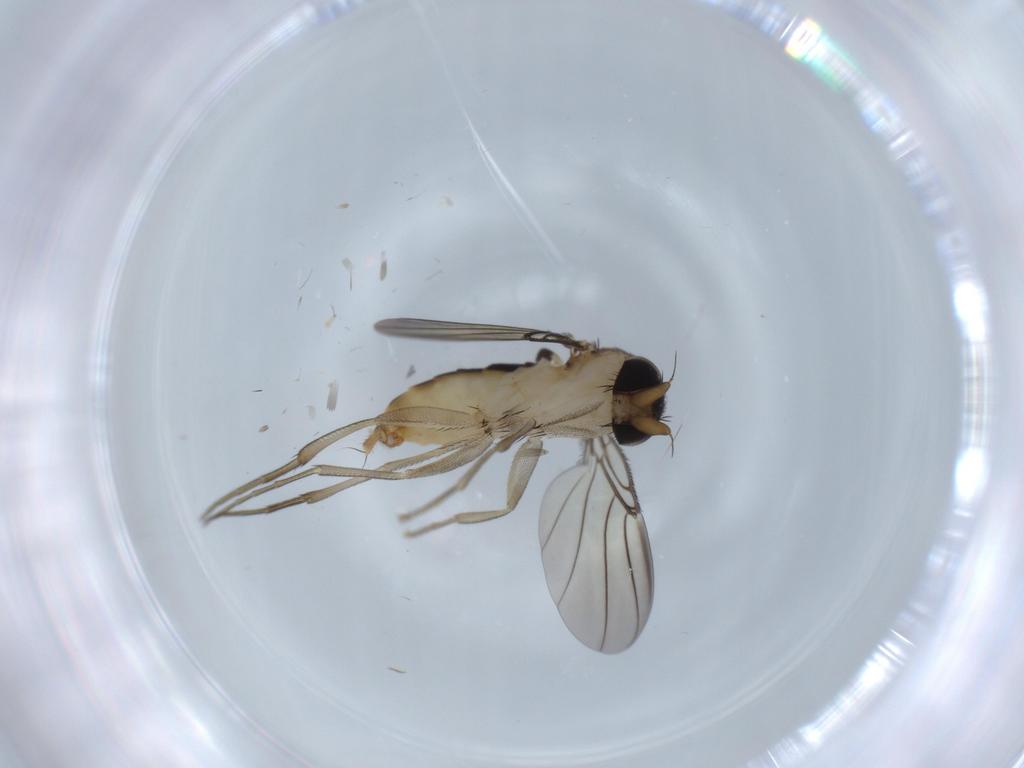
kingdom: Animalia
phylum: Arthropoda
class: Insecta
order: Diptera
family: Phoridae
